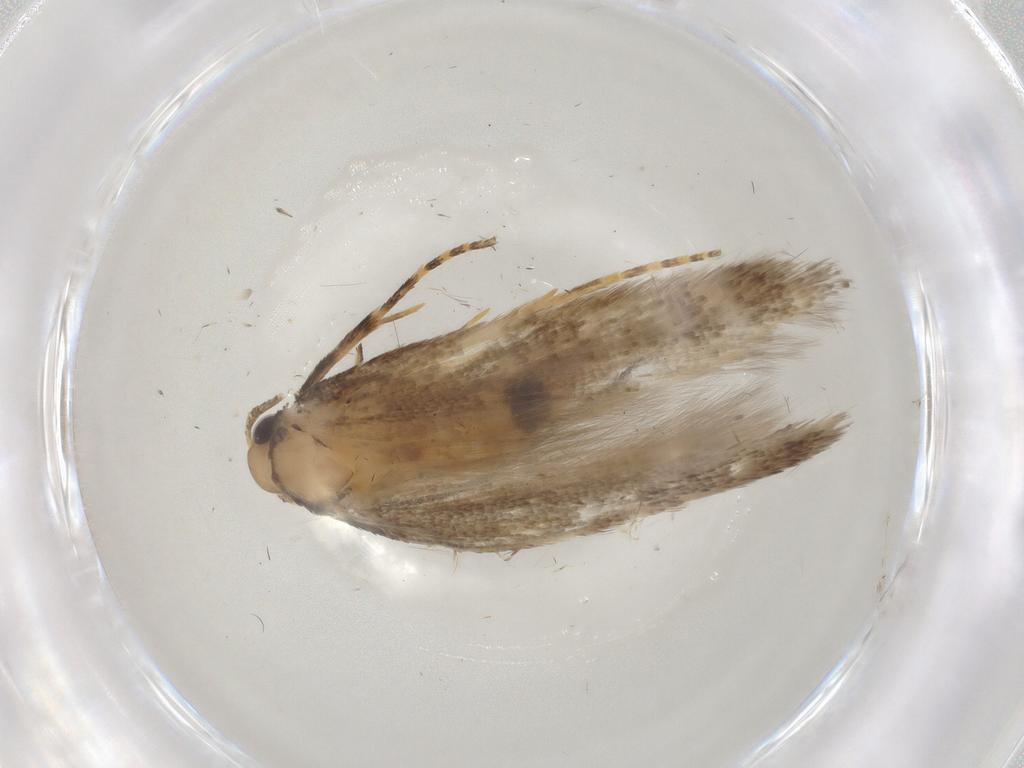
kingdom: Animalia
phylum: Arthropoda
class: Insecta
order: Lepidoptera
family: Gelechiidae
